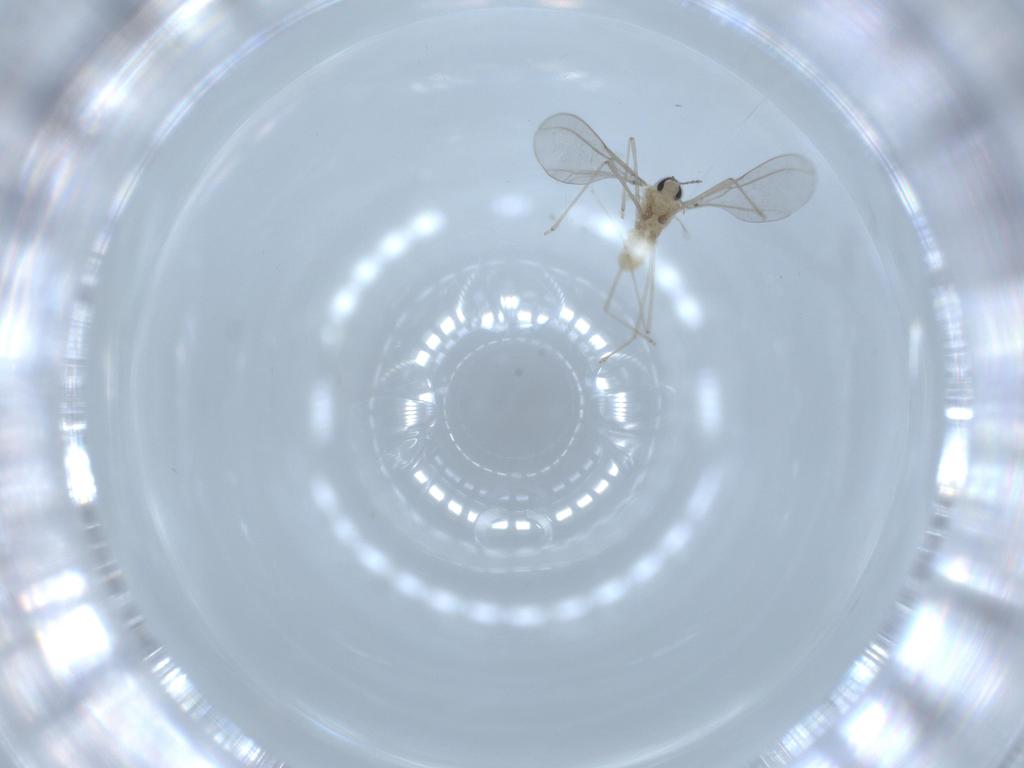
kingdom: Animalia
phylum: Arthropoda
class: Insecta
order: Diptera
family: Cecidomyiidae
